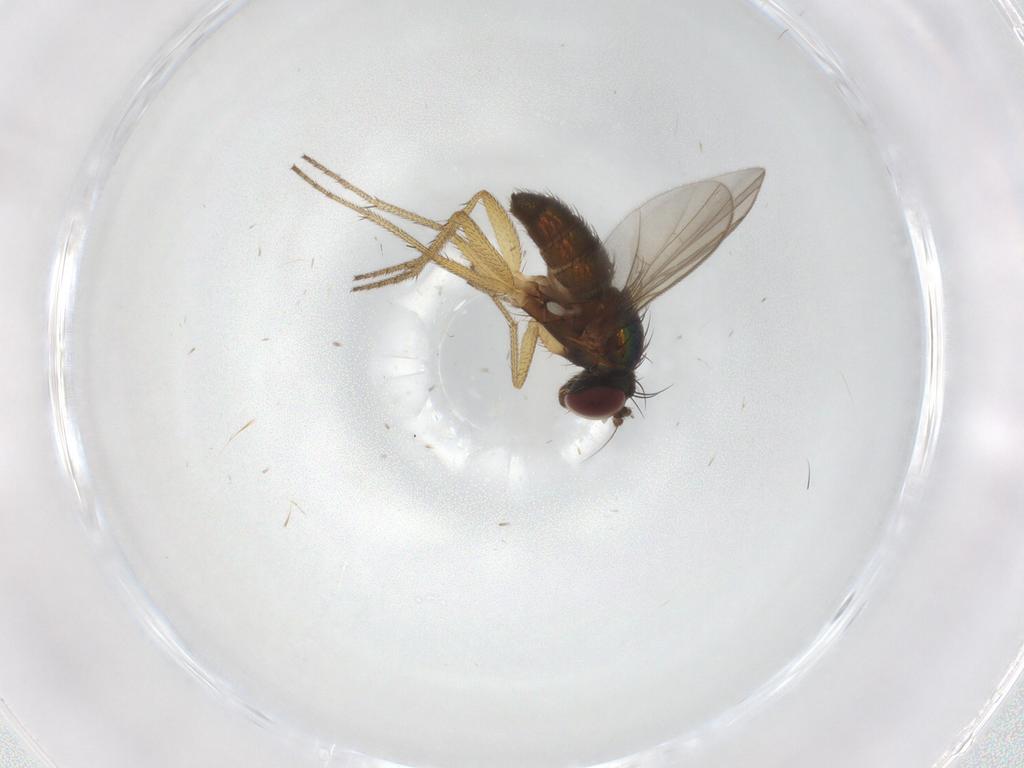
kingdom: Animalia
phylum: Arthropoda
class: Insecta
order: Diptera
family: Dolichopodidae
